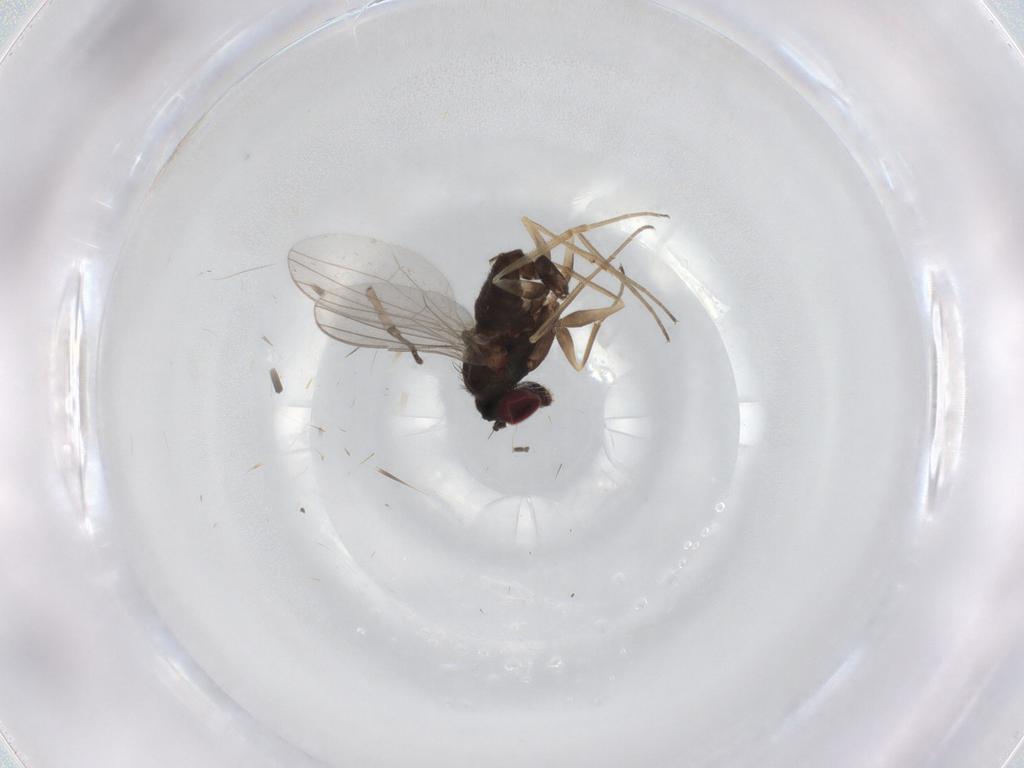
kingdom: Animalia
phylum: Arthropoda
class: Insecta
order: Diptera
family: Mycetophilidae
